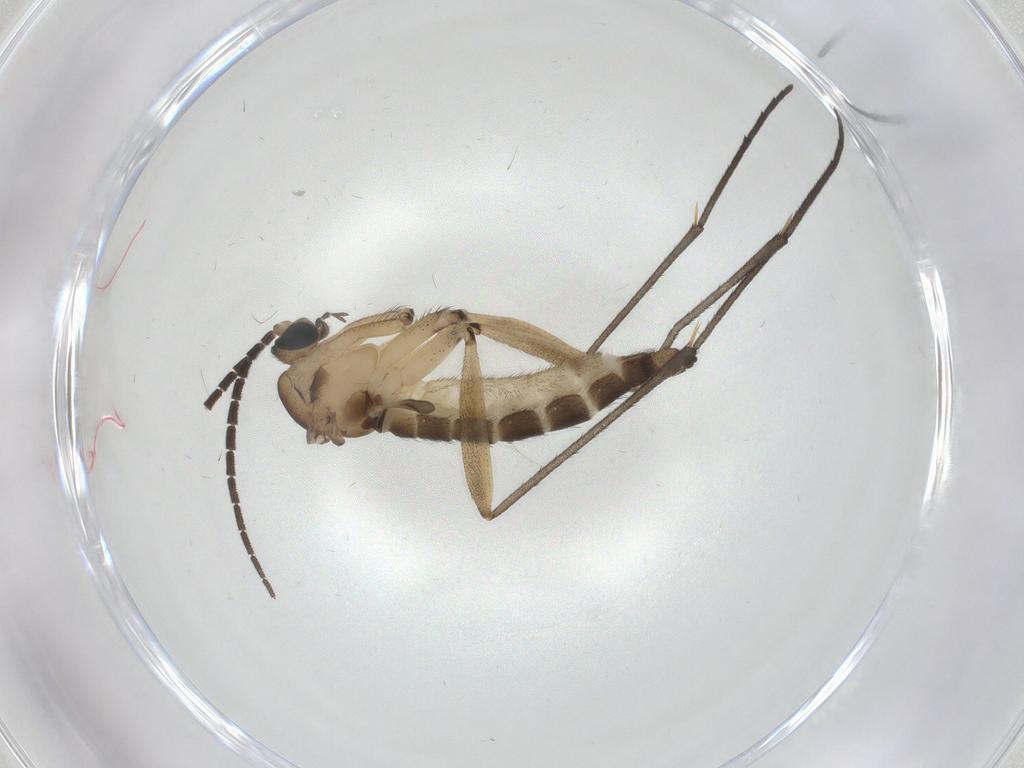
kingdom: Animalia
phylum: Arthropoda
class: Insecta
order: Diptera
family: Sciaridae
